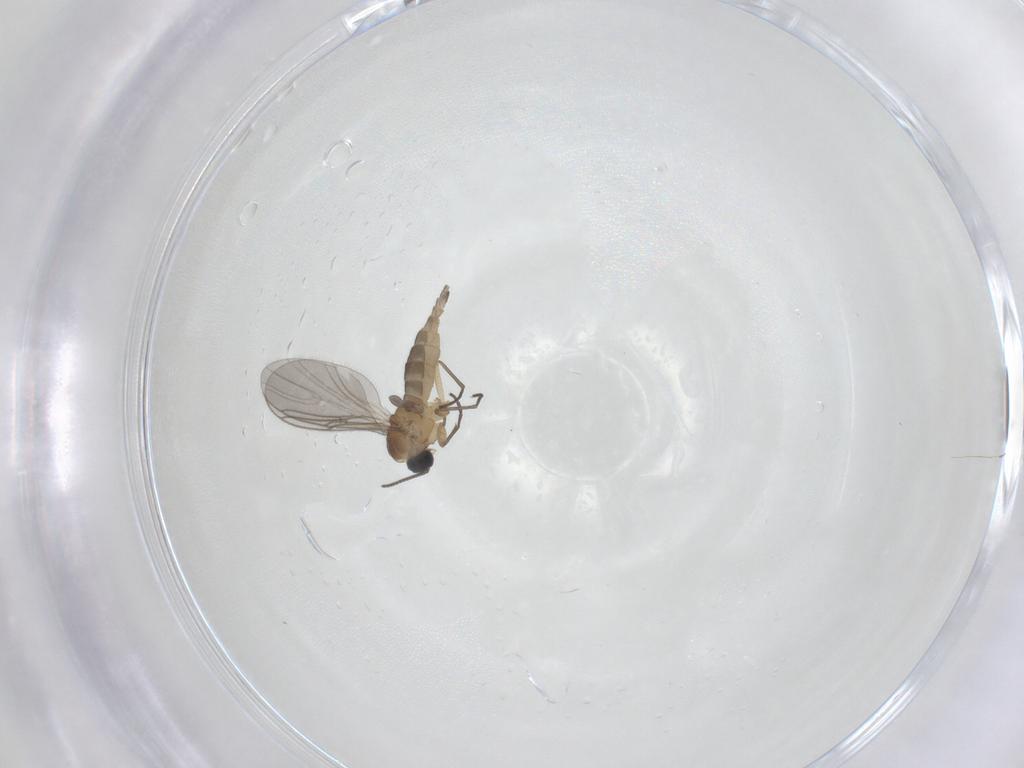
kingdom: Animalia
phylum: Arthropoda
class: Insecta
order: Diptera
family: Sciaridae
